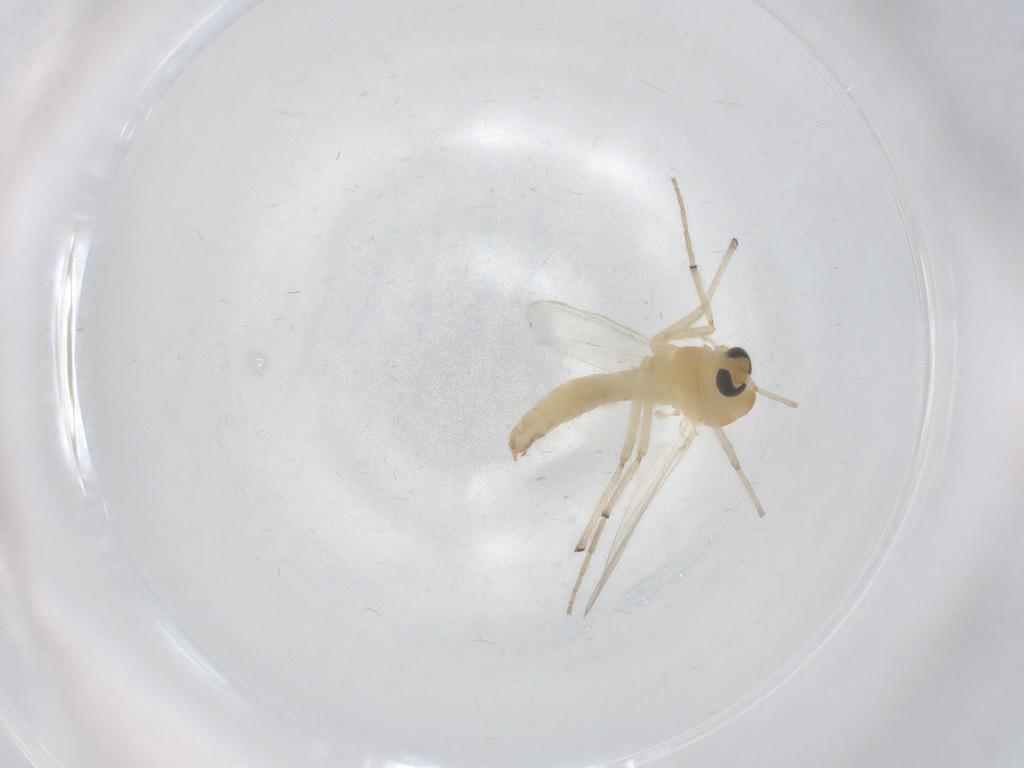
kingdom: Animalia
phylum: Arthropoda
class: Insecta
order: Diptera
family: Chironomidae
